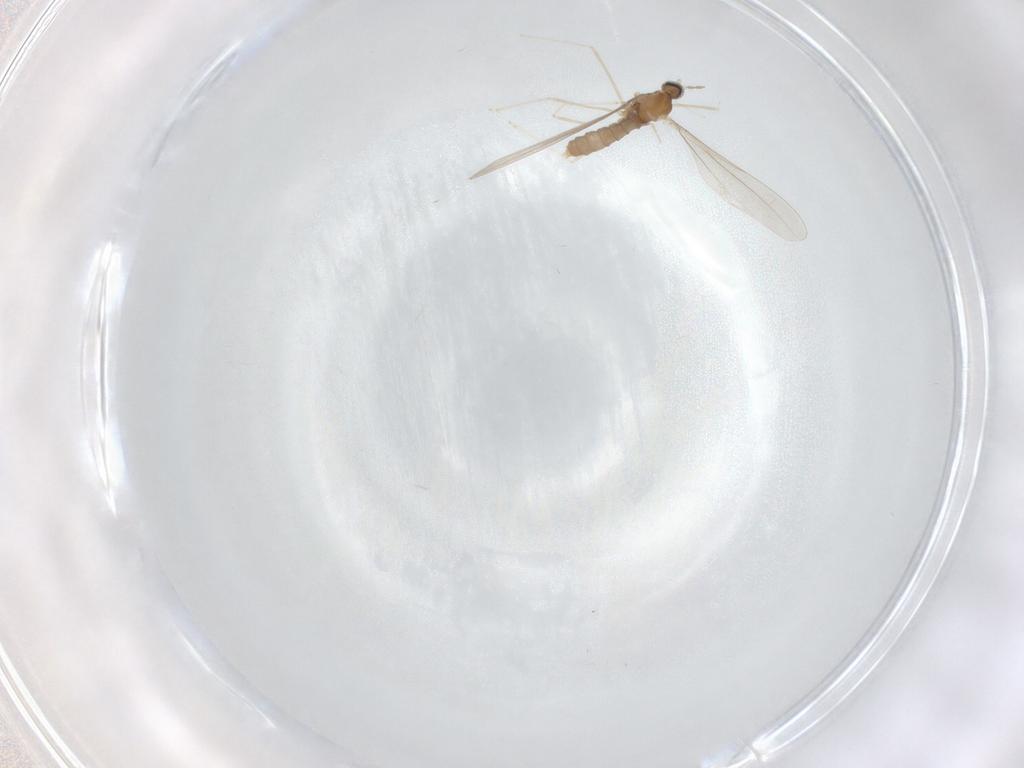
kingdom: Animalia
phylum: Arthropoda
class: Insecta
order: Diptera
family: Cecidomyiidae
